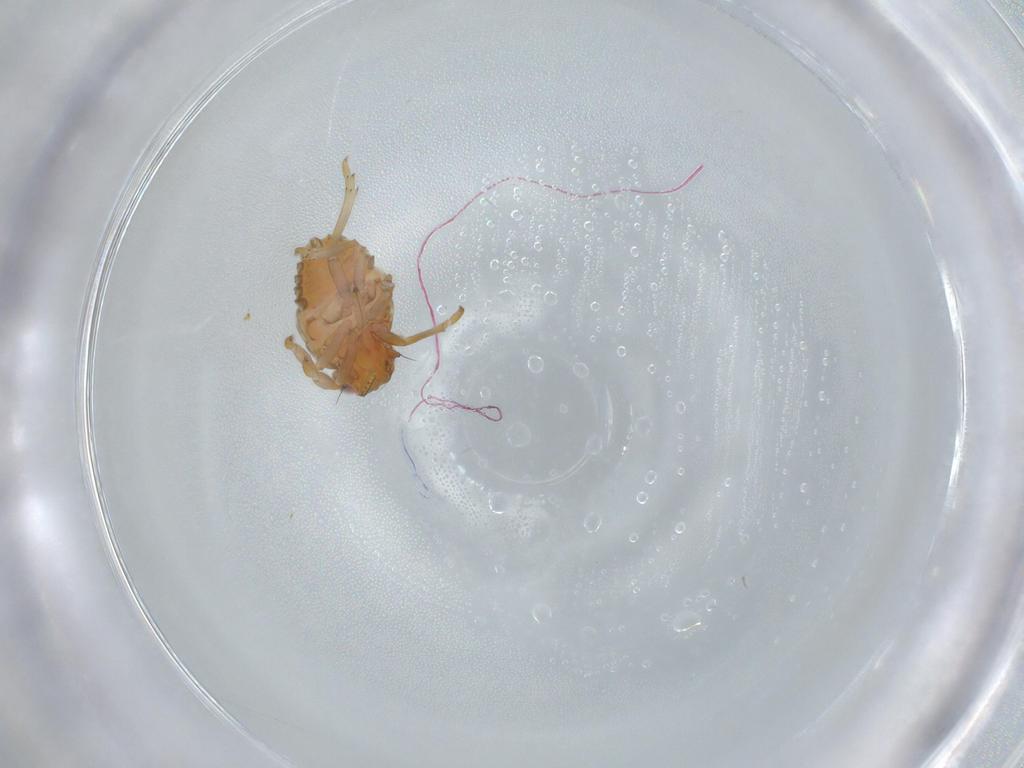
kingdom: Animalia
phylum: Arthropoda
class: Insecta
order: Hemiptera
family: Issidae
